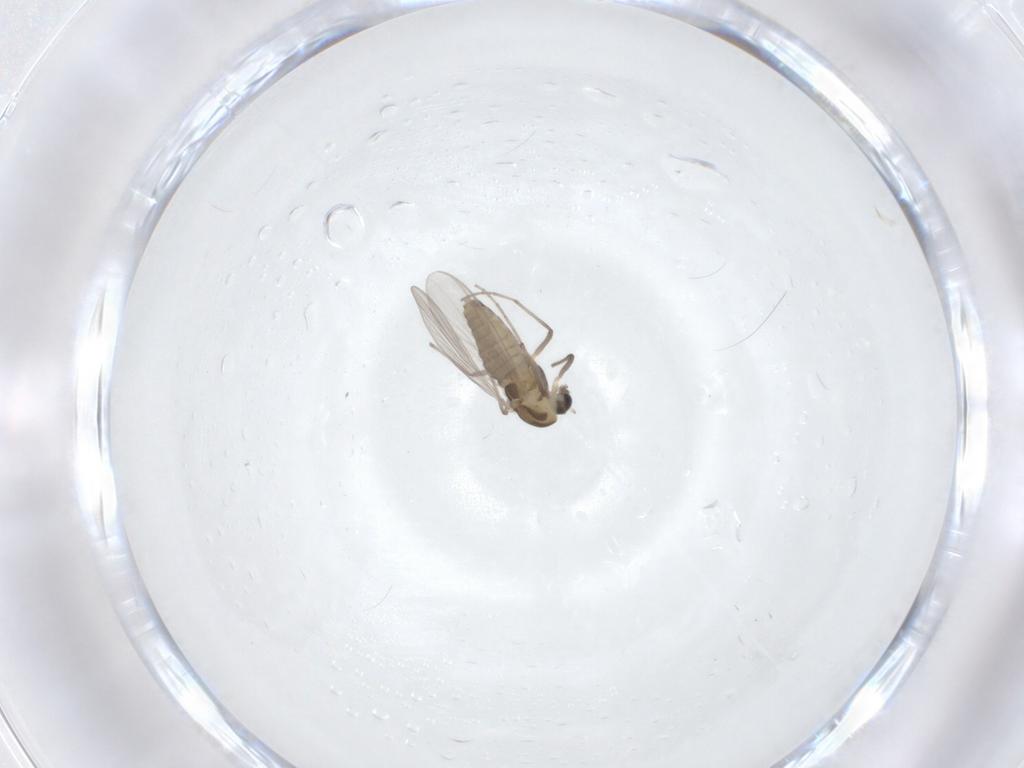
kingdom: Animalia
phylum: Arthropoda
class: Insecta
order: Diptera
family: Chironomidae
